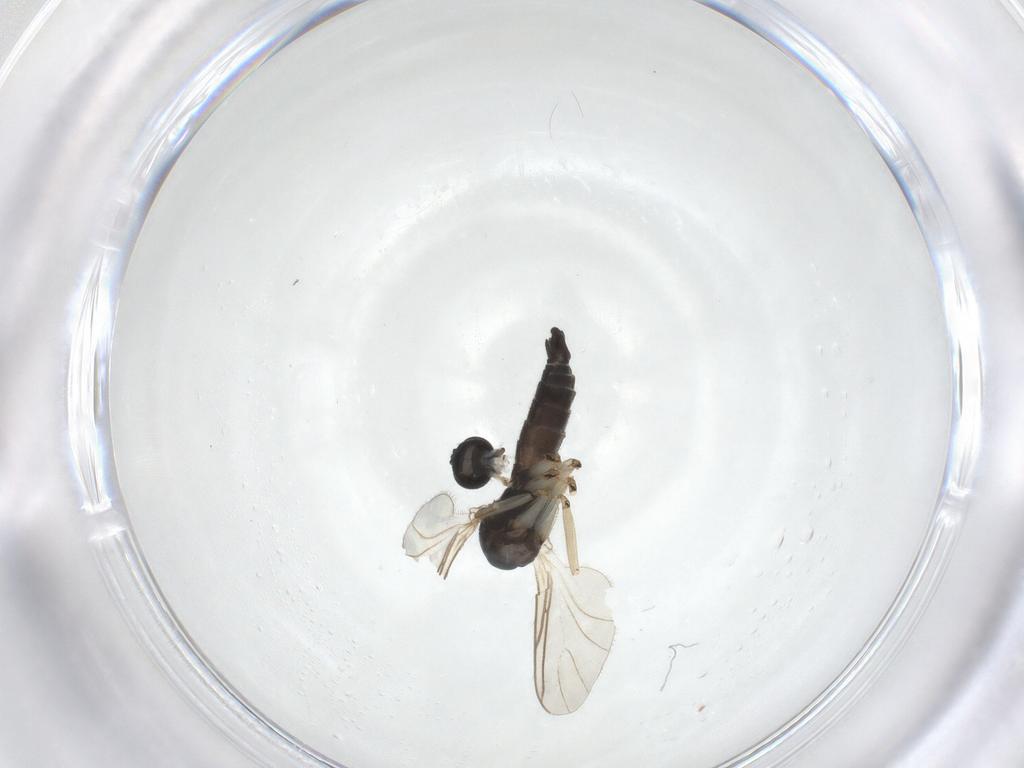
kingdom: Animalia
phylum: Arthropoda
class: Insecta
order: Diptera
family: Sciaridae
